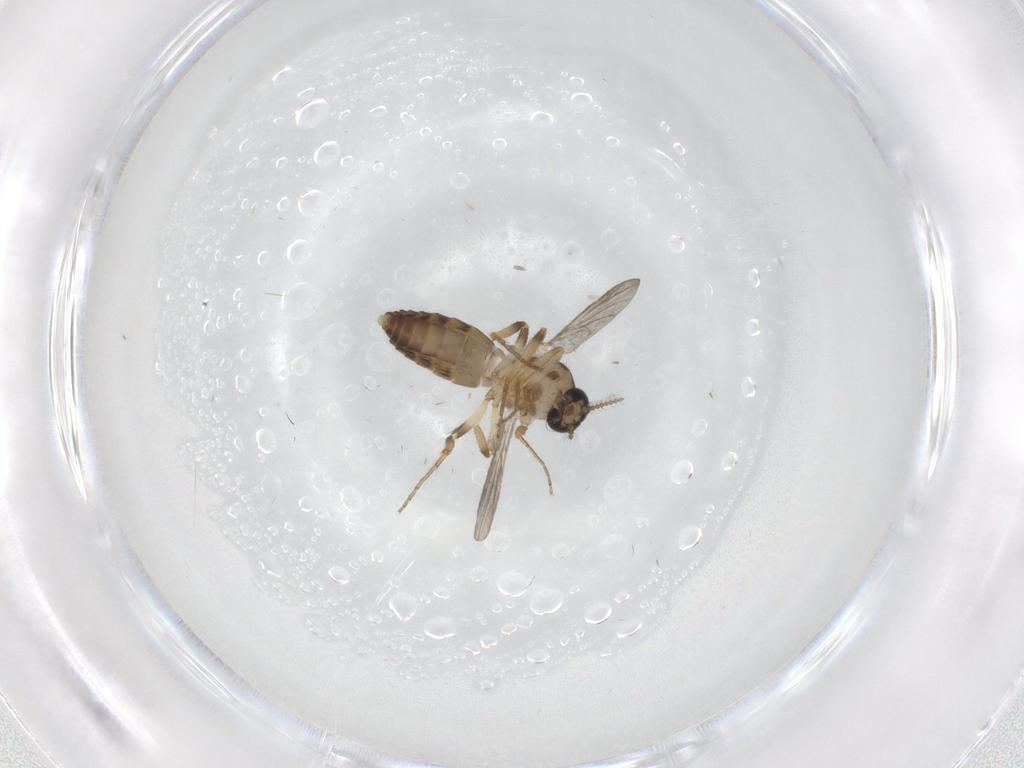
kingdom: Animalia
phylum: Arthropoda
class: Insecta
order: Diptera
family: Ceratopogonidae
